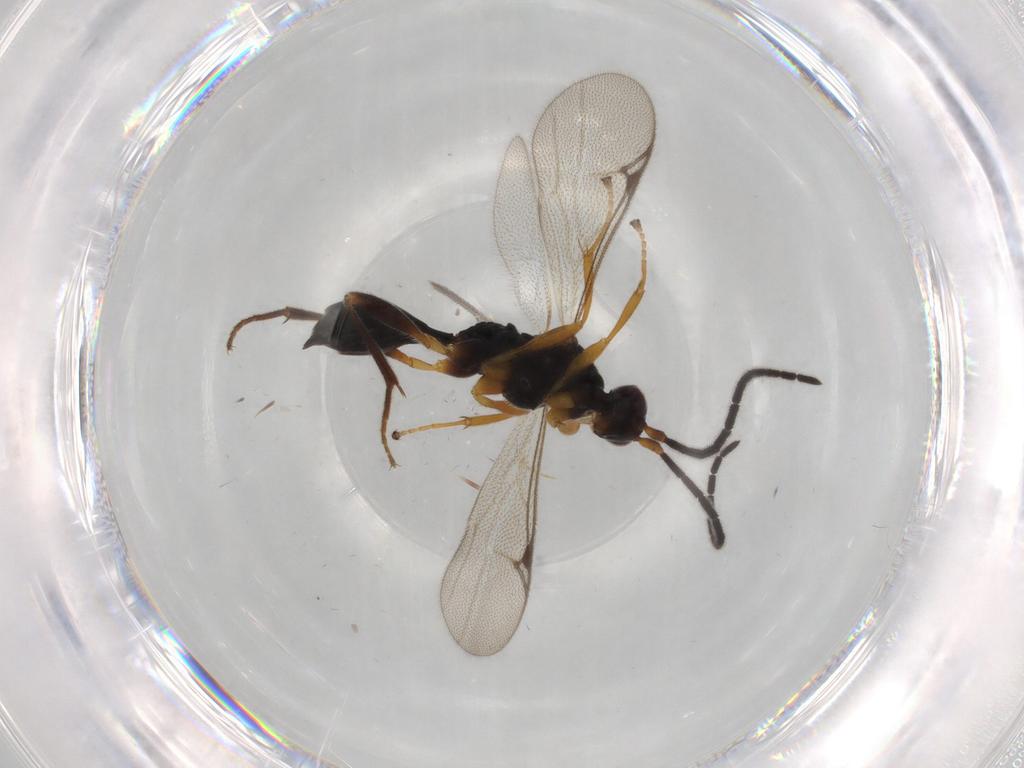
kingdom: Animalia
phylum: Arthropoda
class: Insecta
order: Hymenoptera
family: Proctotrupidae
